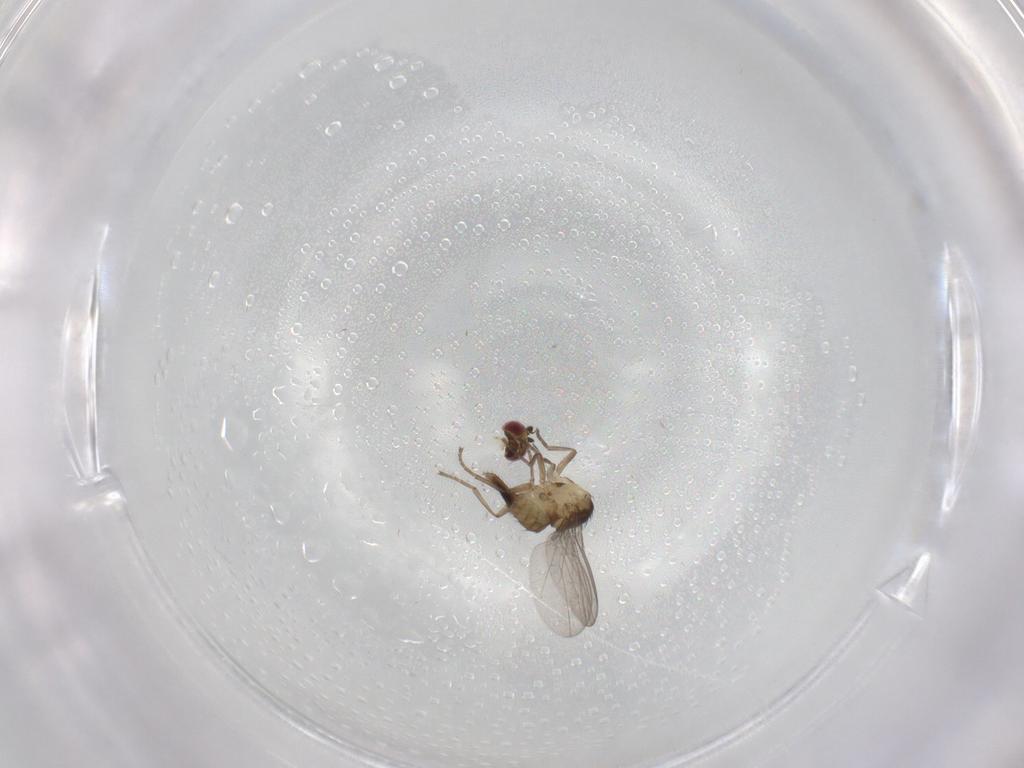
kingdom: Animalia
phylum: Arthropoda
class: Insecta
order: Diptera
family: Agromyzidae
